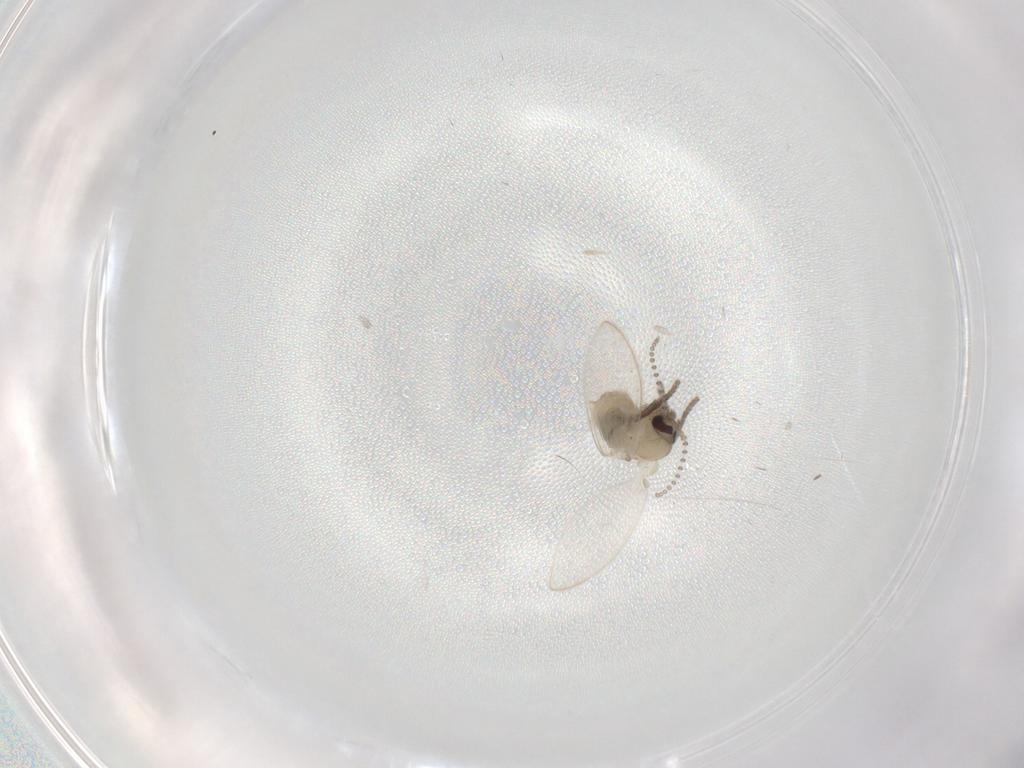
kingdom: Animalia
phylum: Arthropoda
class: Insecta
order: Diptera
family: Psychodidae
